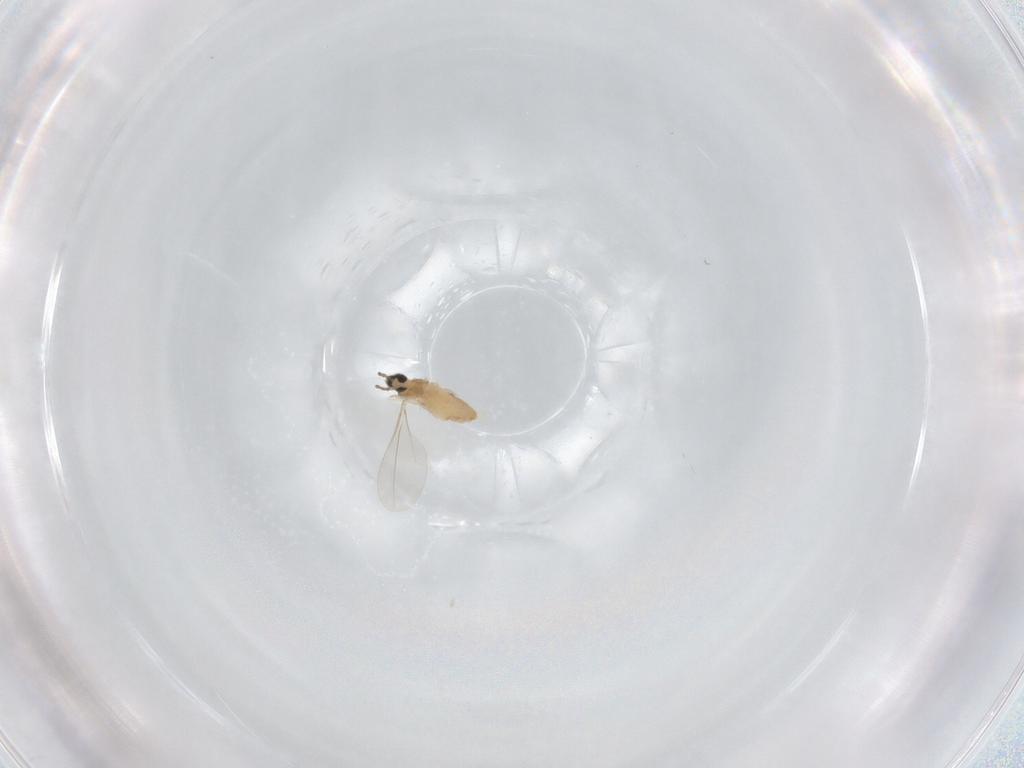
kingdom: Animalia
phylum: Arthropoda
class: Insecta
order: Diptera
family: Cecidomyiidae
